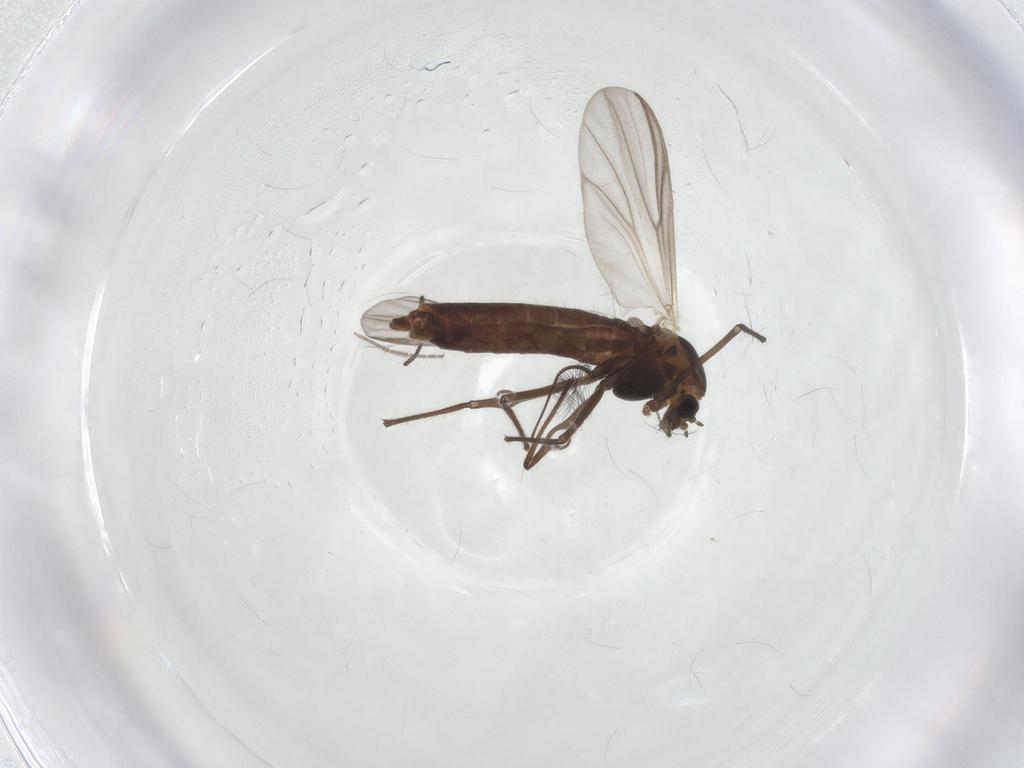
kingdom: Animalia
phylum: Arthropoda
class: Insecta
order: Diptera
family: Chironomidae
